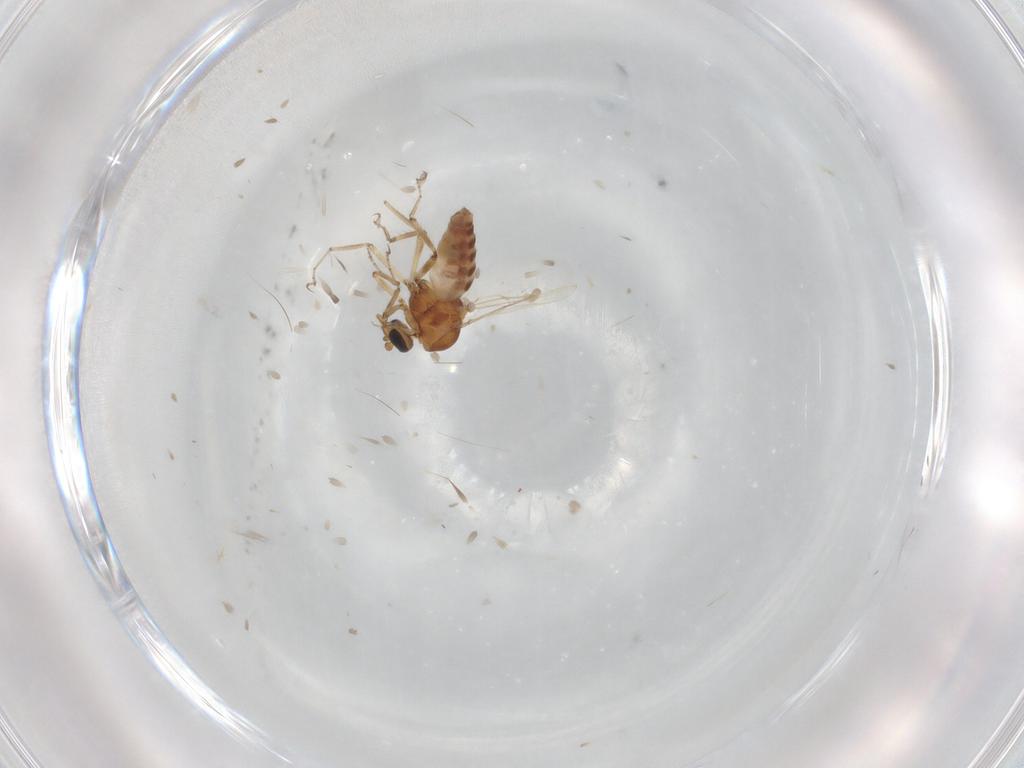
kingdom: Animalia
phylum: Arthropoda
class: Insecta
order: Diptera
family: Ceratopogonidae
